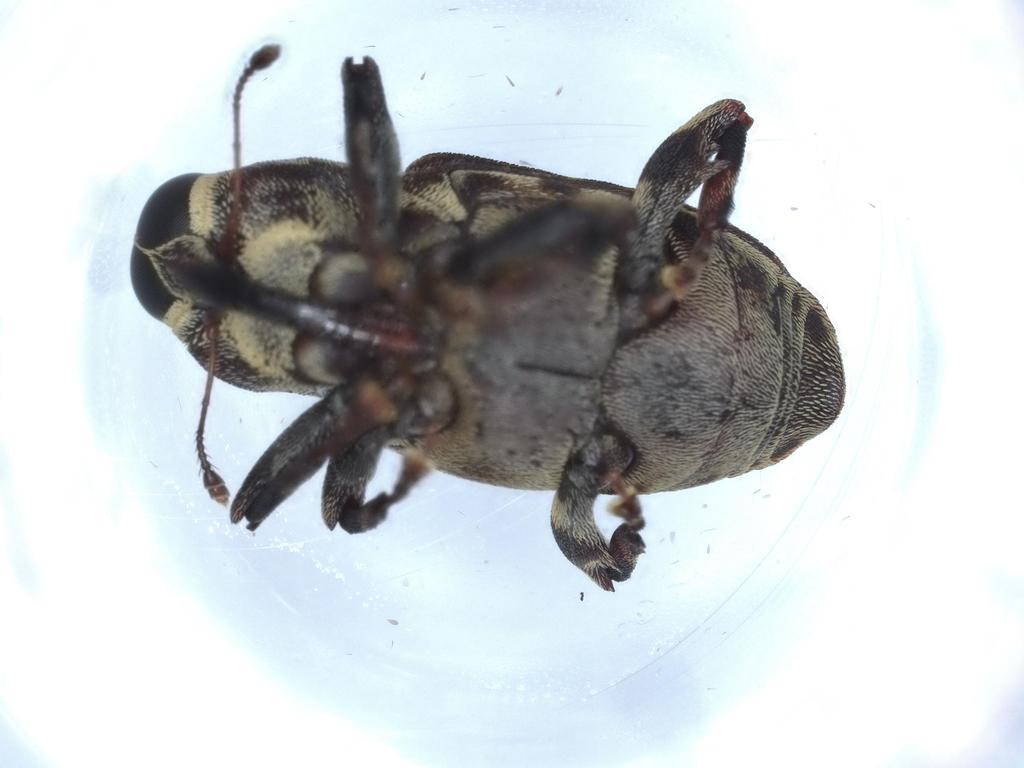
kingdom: Animalia
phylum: Arthropoda
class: Insecta
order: Coleoptera
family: Curculionidae
